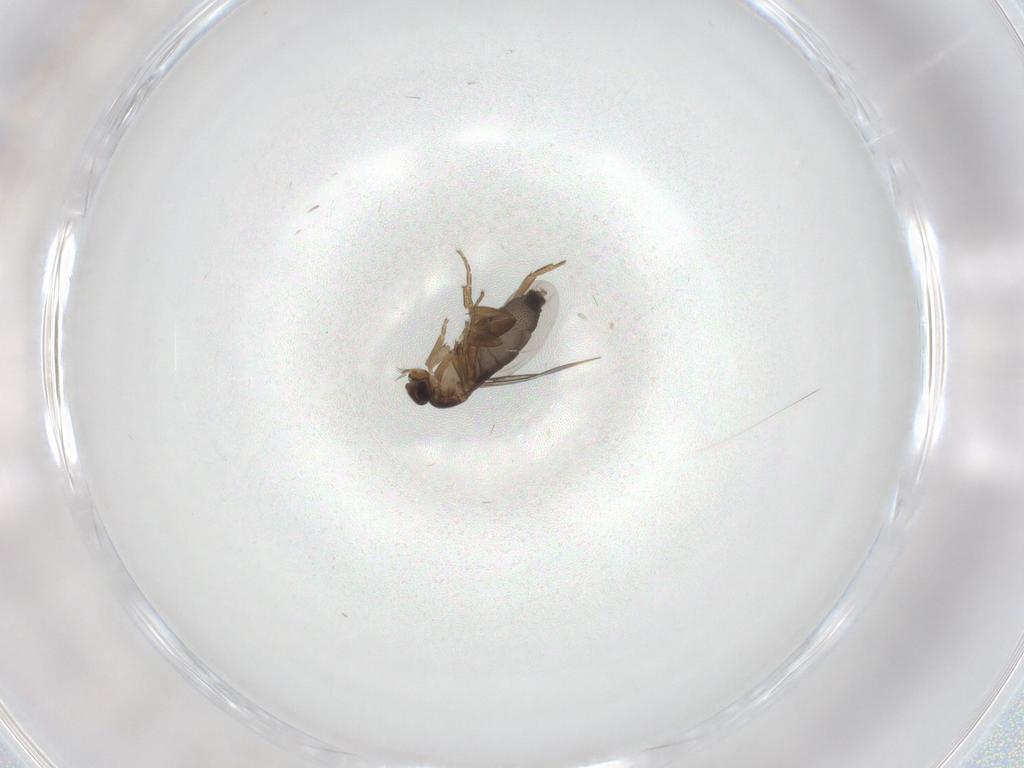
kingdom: Animalia
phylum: Arthropoda
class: Insecta
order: Diptera
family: Phoridae
